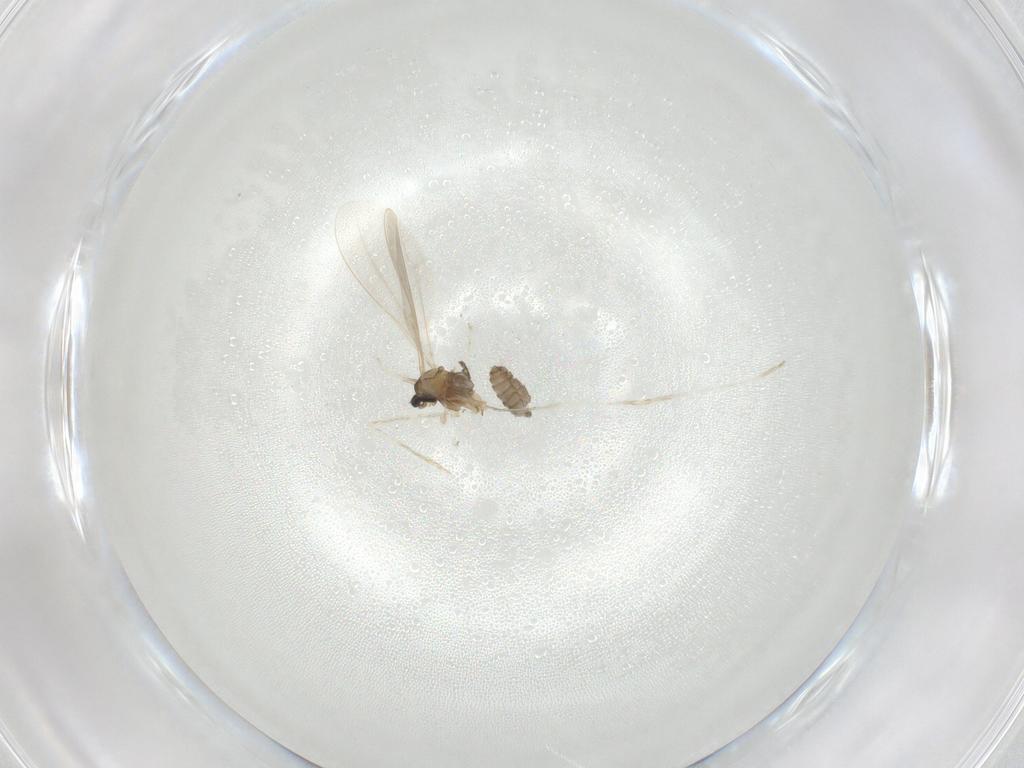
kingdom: Animalia
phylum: Arthropoda
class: Insecta
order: Diptera
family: Cecidomyiidae
